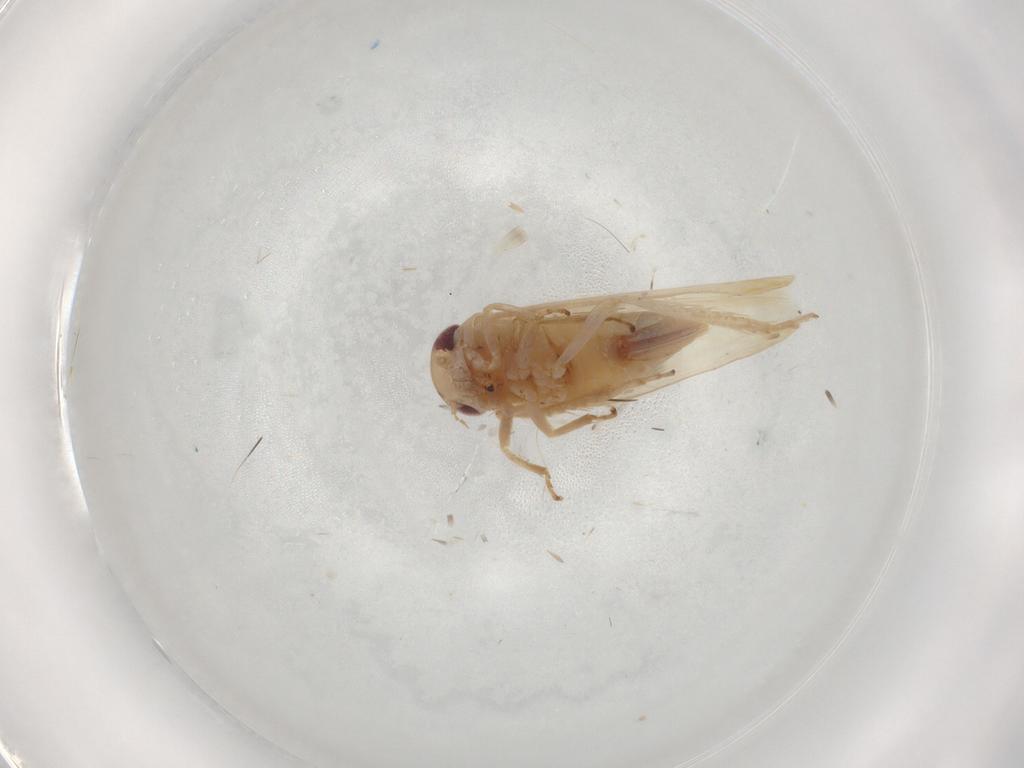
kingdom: Animalia
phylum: Arthropoda
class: Insecta
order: Hemiptera
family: Cicadellidae
